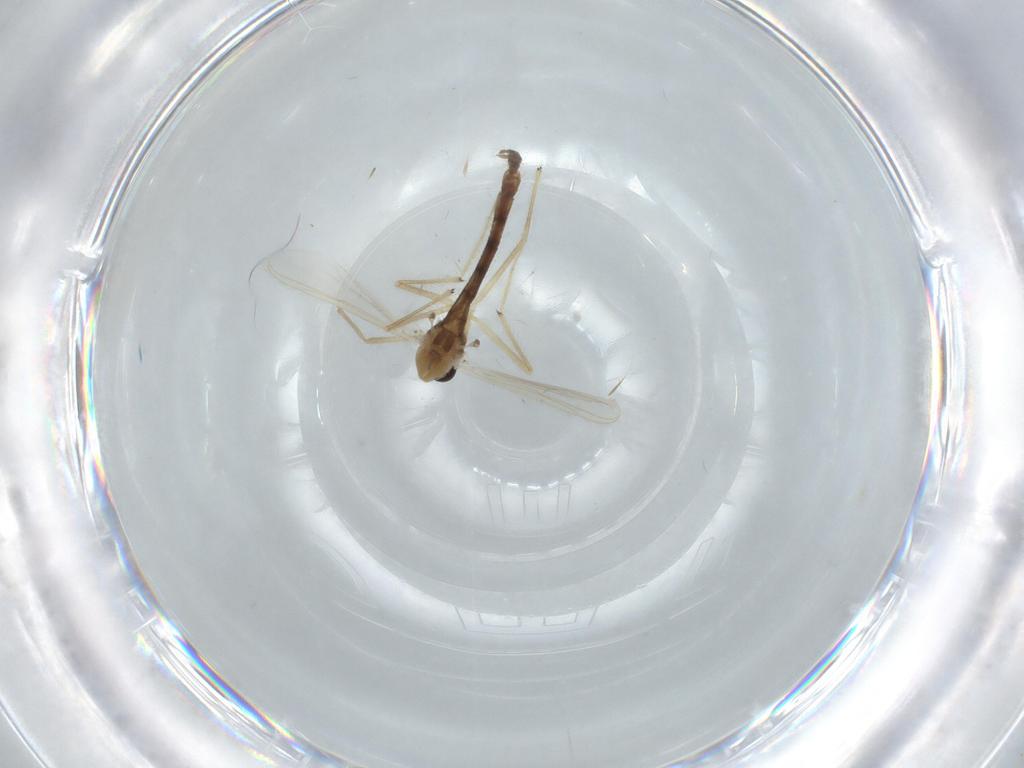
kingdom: Animalia
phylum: Arthropoda
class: Insecta
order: Diptera
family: Chironomidae
